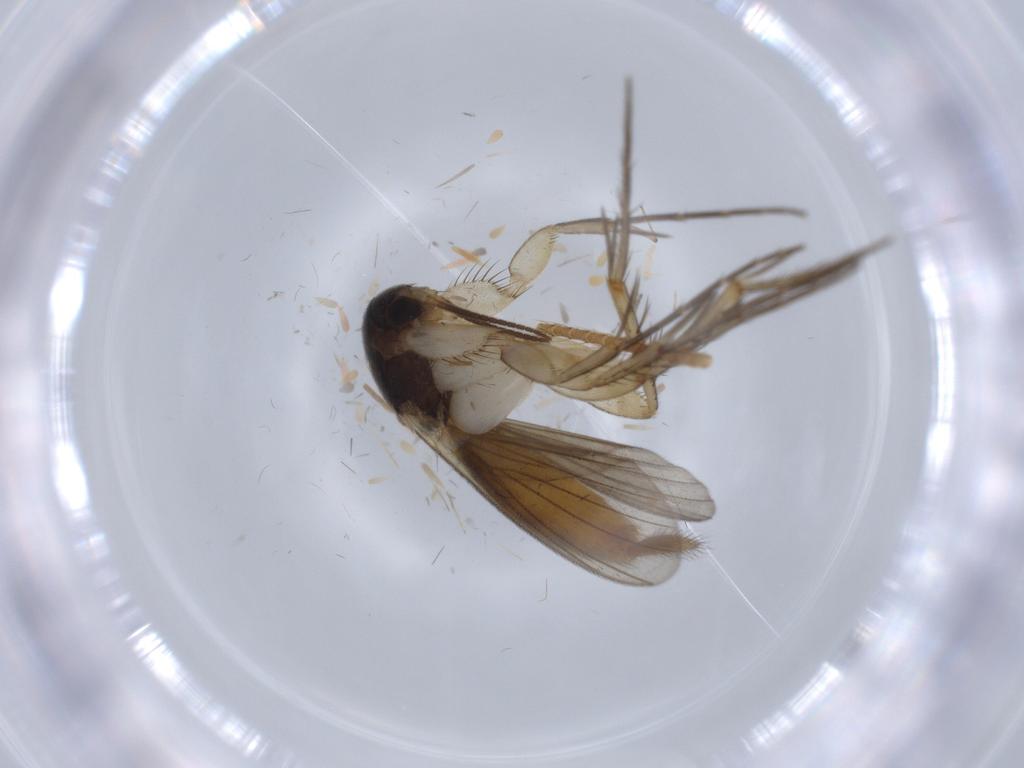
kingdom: Animalia
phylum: Arthropoda
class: Insecta
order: Diptera
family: Mycetophilidae
